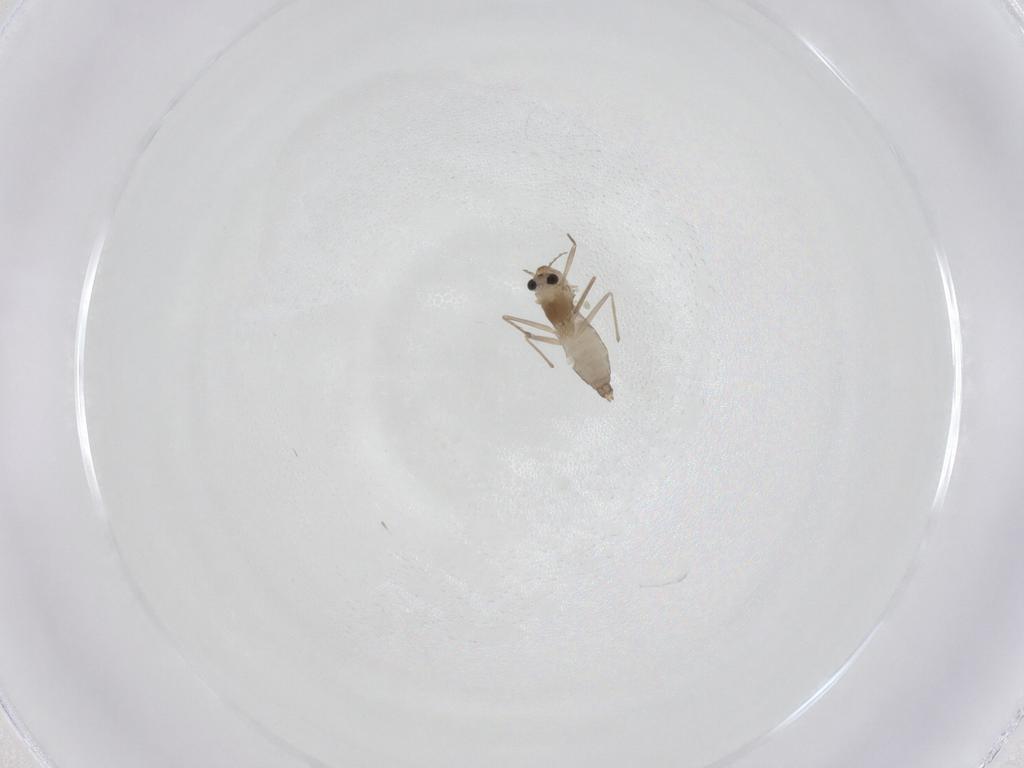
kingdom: Animalia
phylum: Arthropoda
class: Insecta
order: Diptera
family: Chironomidae
